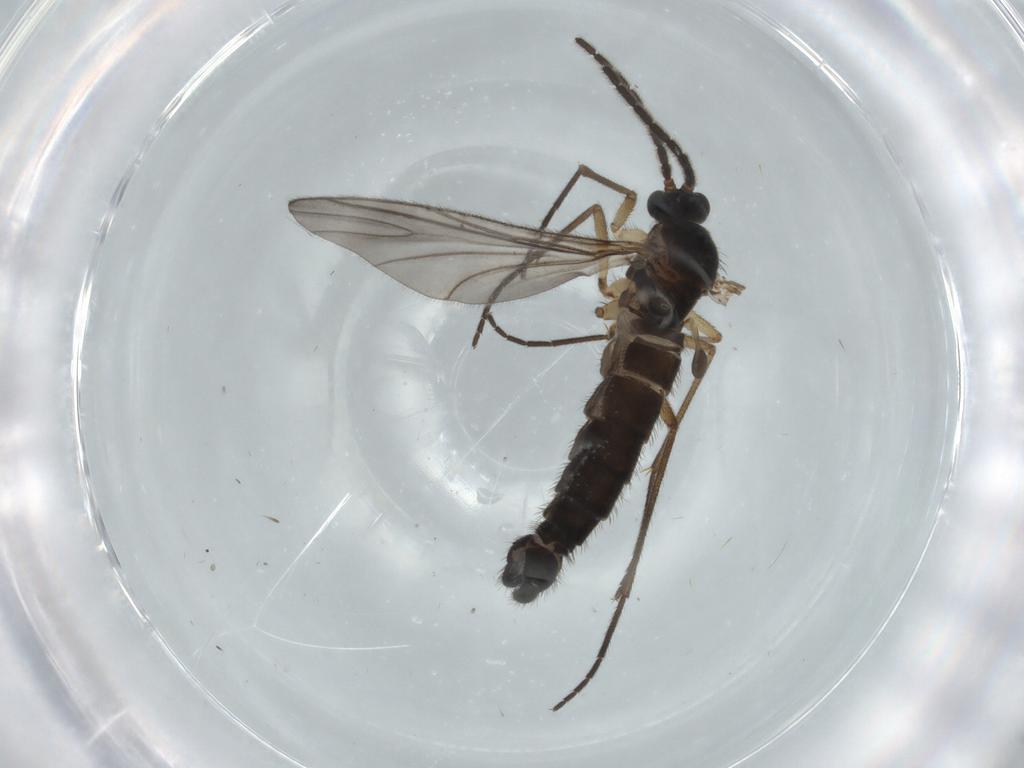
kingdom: Animalia
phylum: Arthropoda
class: Insecta
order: Diptera
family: Sciaridae
